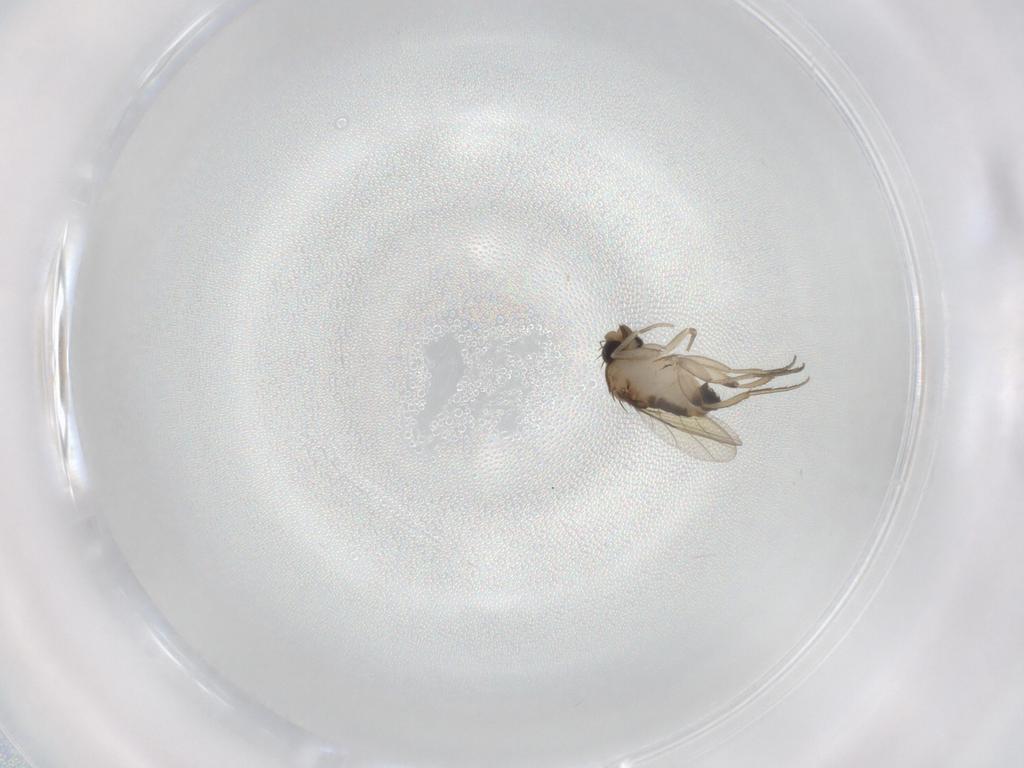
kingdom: Animalia
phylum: Arthropoda
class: Insecta
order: Diptera
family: Phoridae
